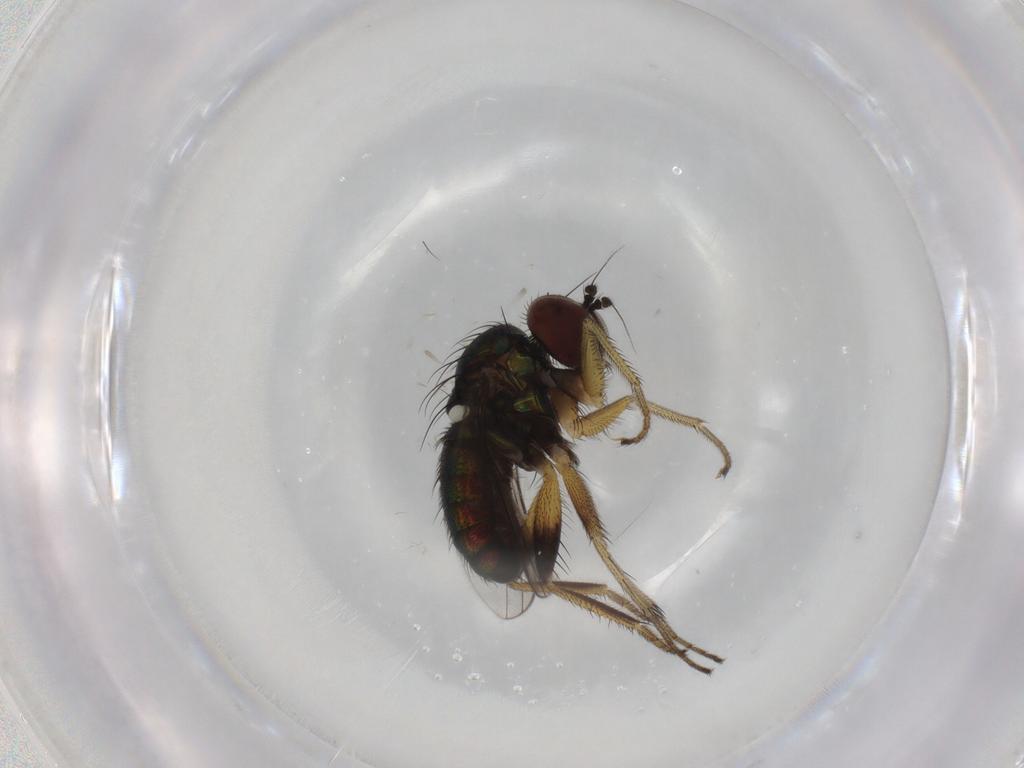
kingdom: Animalia
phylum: Arthropoda
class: Insecta
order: Diptera
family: Dolichopodidae
